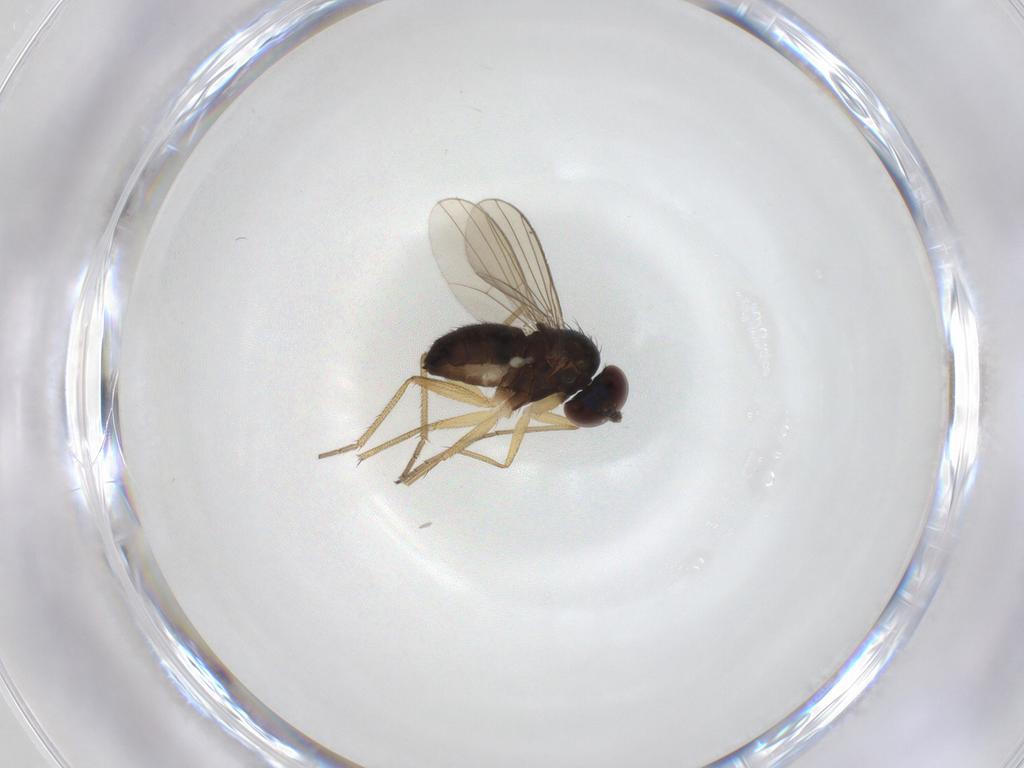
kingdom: Animalia
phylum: Arthropoda
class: Insecta
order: Diptera
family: Dolichopodidae
